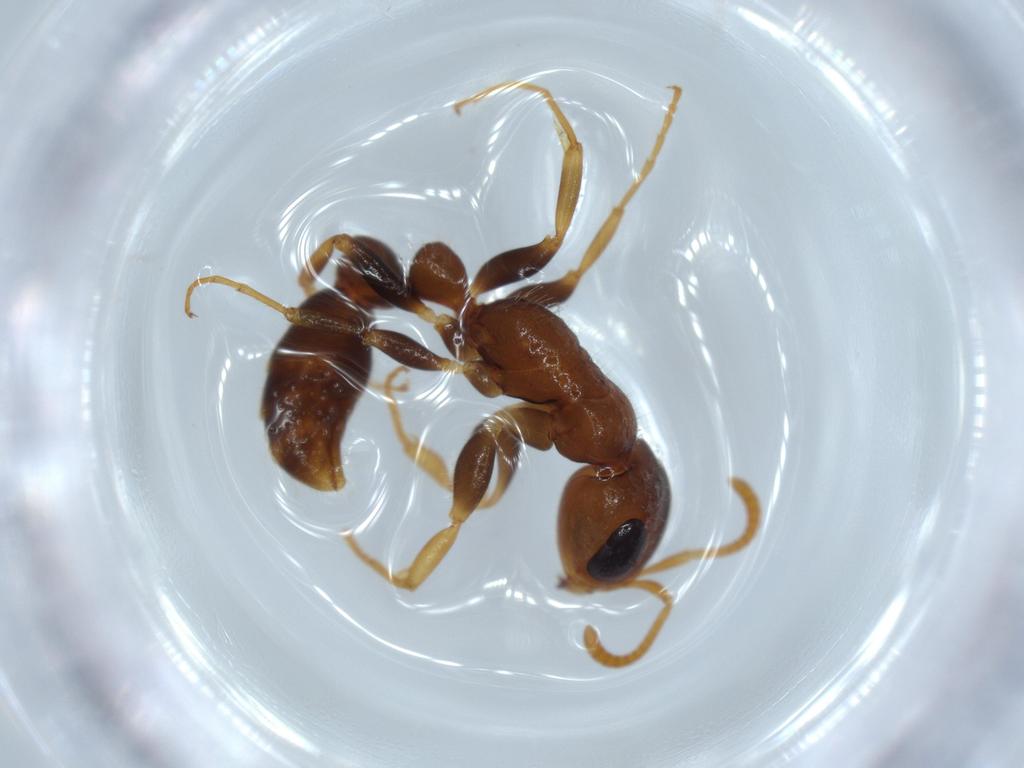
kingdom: Animalia
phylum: Arthropoda
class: Insecta
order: Hymenoptera
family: Formicidae
